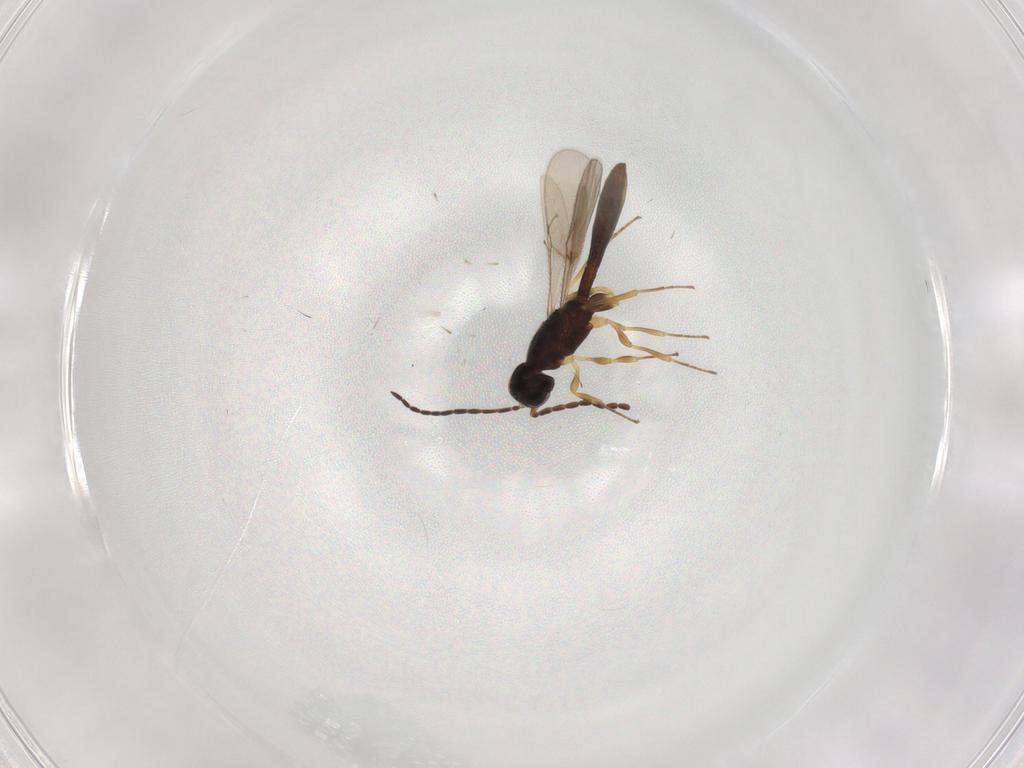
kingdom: Animalia
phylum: Arthropoda
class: Insecta
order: Hymenoptera
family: Scelionidae
